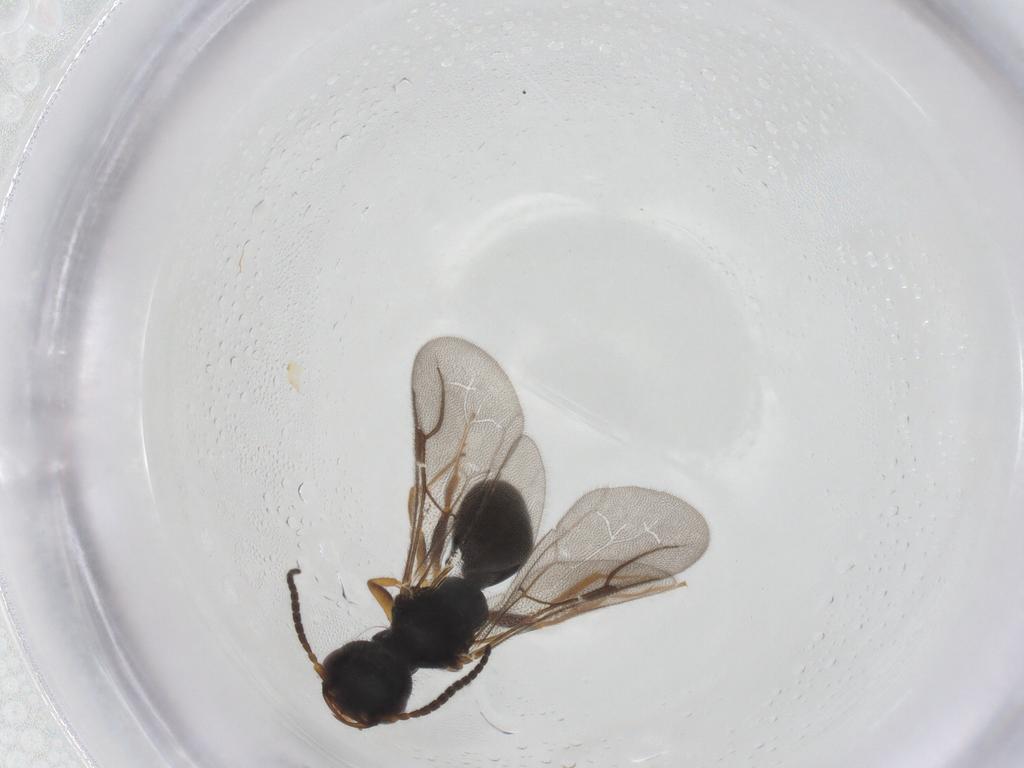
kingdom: Animalia
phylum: Arthropoda
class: Insecta
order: Hymenoptera
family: Bethylidae
